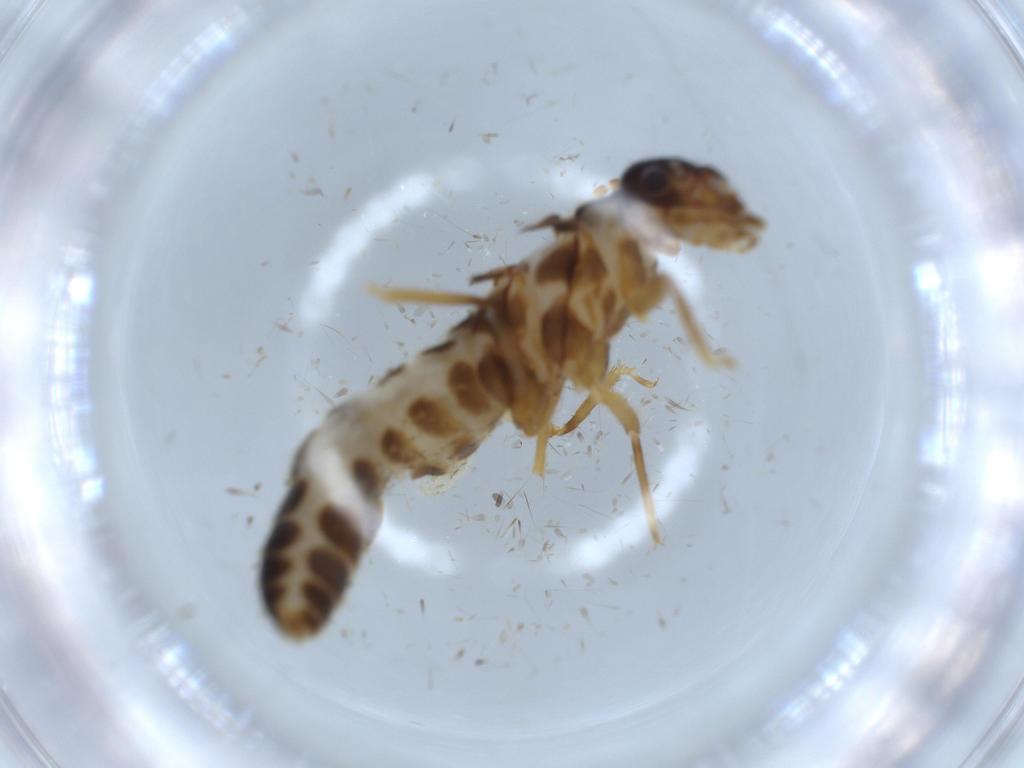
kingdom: Animalia
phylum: Arthropoda
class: Insecta
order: Blattodea
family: Termitidae
